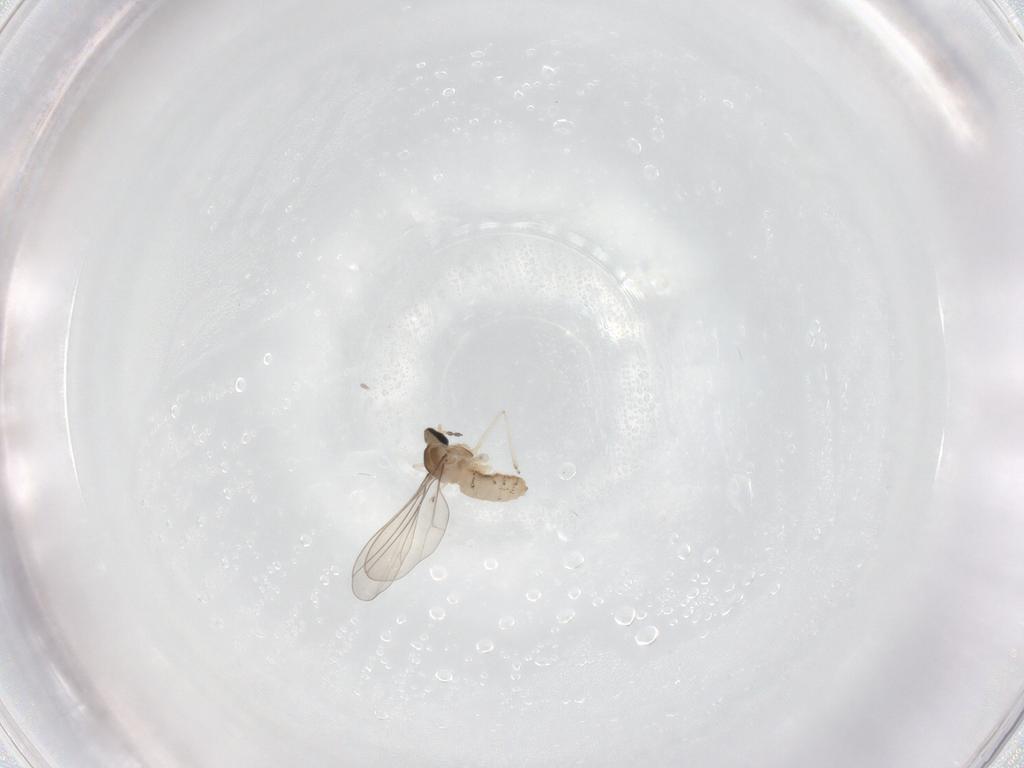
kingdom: Animalia
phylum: Arthropoda
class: Insecta
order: Diptera
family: Cecidomyiidae
